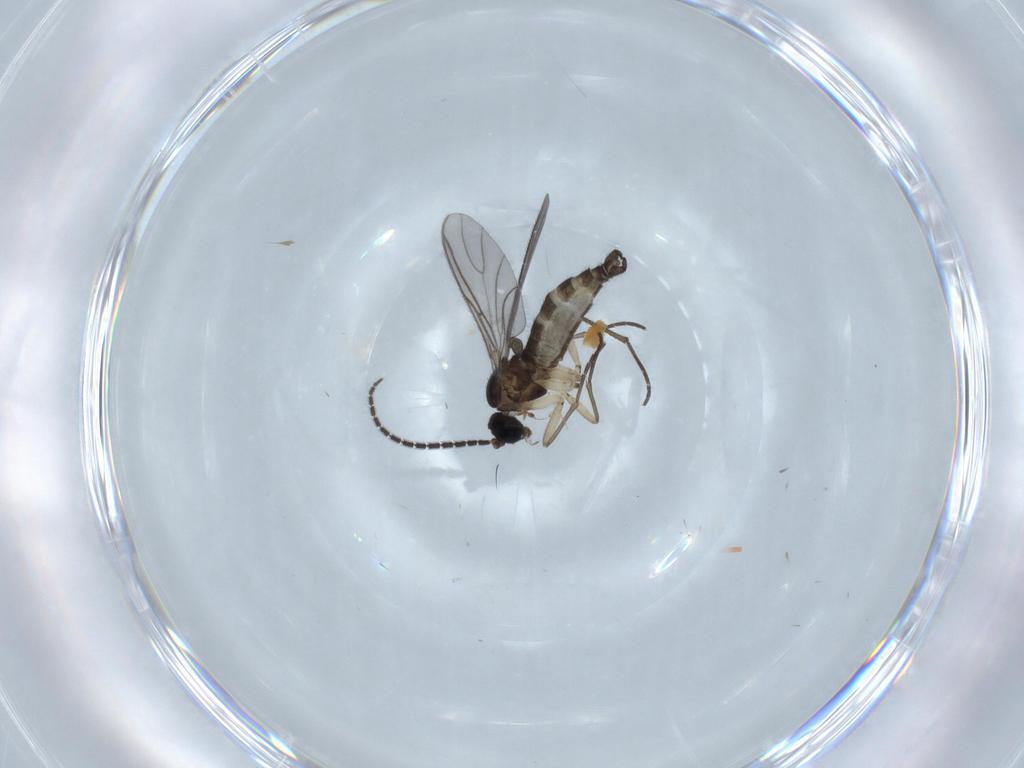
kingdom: Animalia
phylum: Arthropoda
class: Insecta
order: Diptera
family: Sciaridae
